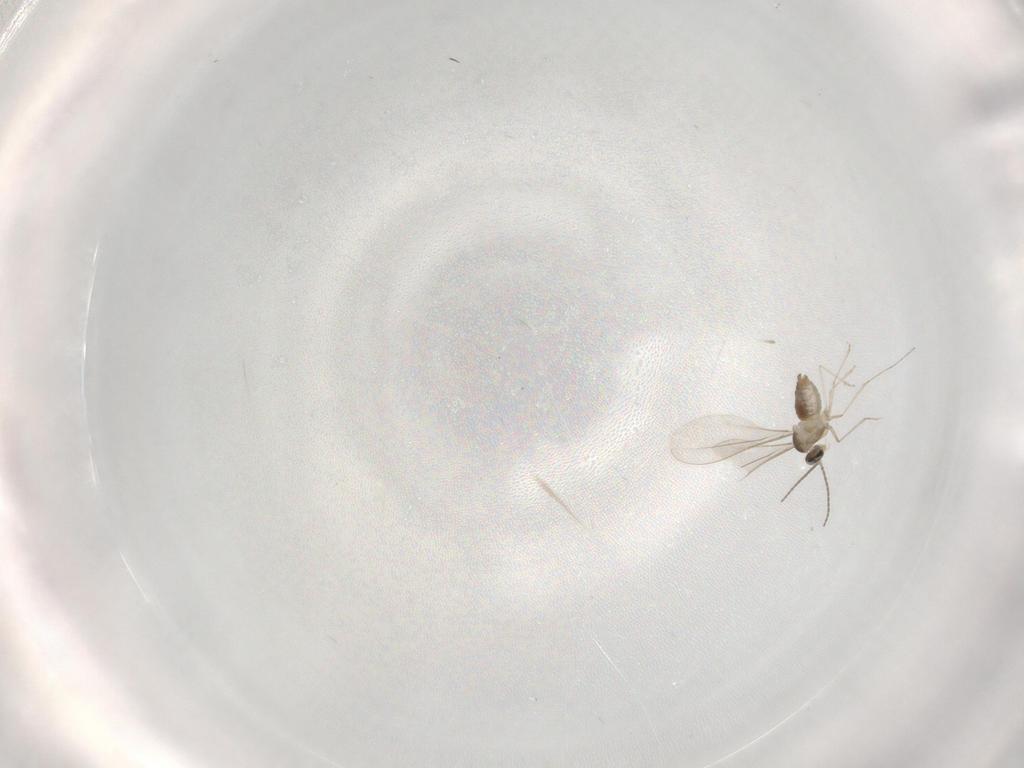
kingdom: Animalia
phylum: Arthropoda
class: Insecta
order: Diptera
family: Cecidomyiidae
